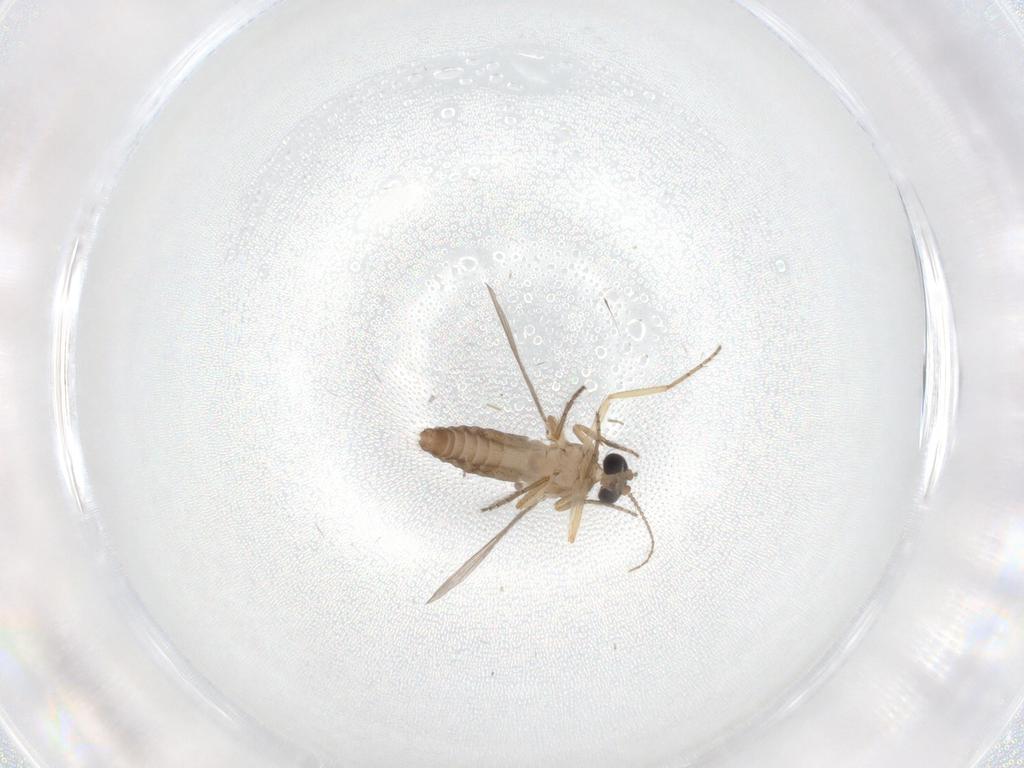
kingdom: Animalia
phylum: Arthropoda
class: Insecta
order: Diptera
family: Ceratopogonidae
